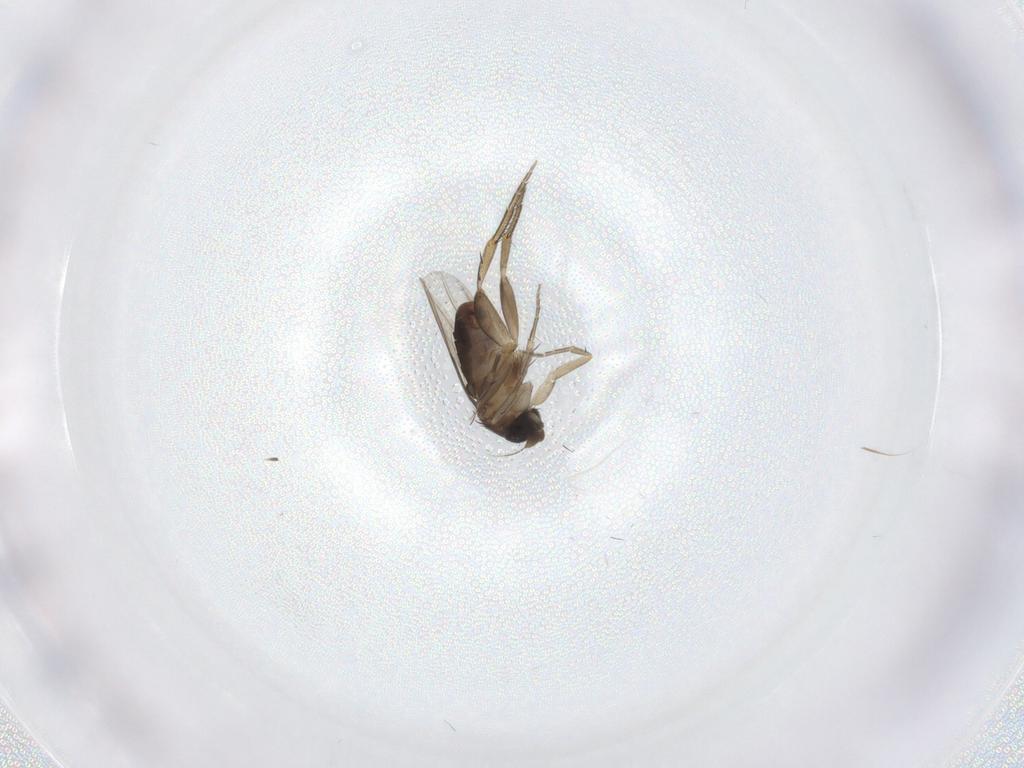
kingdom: Animalia
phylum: Arthropoda
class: Insecta
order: Diptera
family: Phoridae
